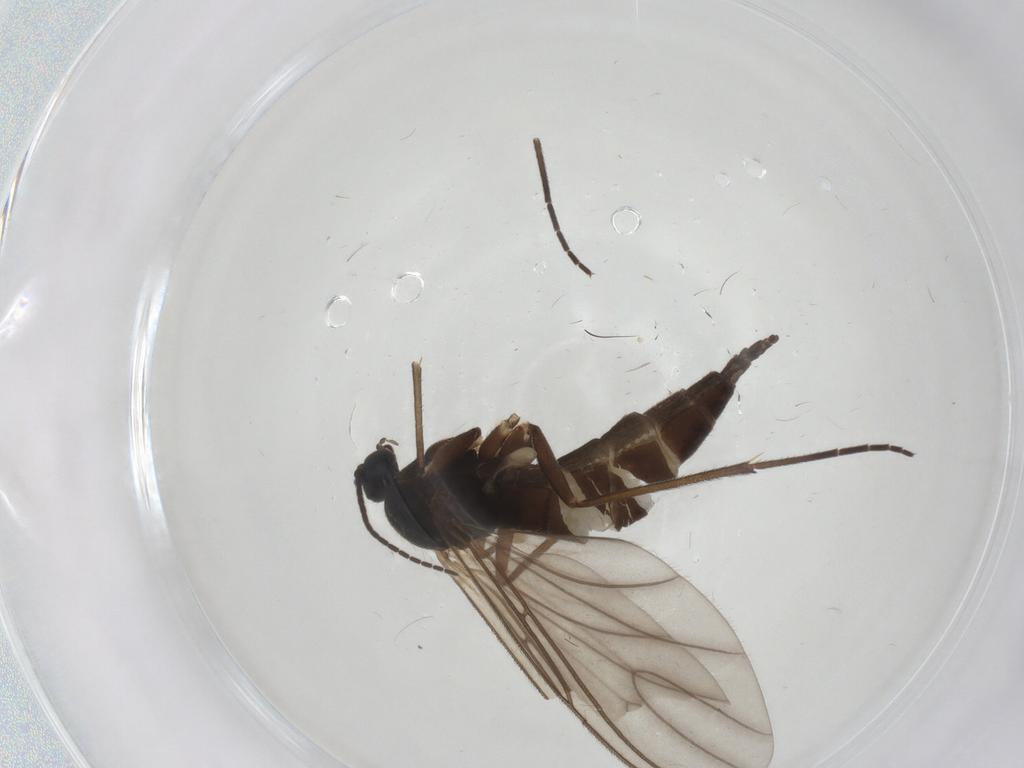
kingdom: Animalia
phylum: Arthropoda
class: Insecta
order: Diptera
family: Sciaridae
